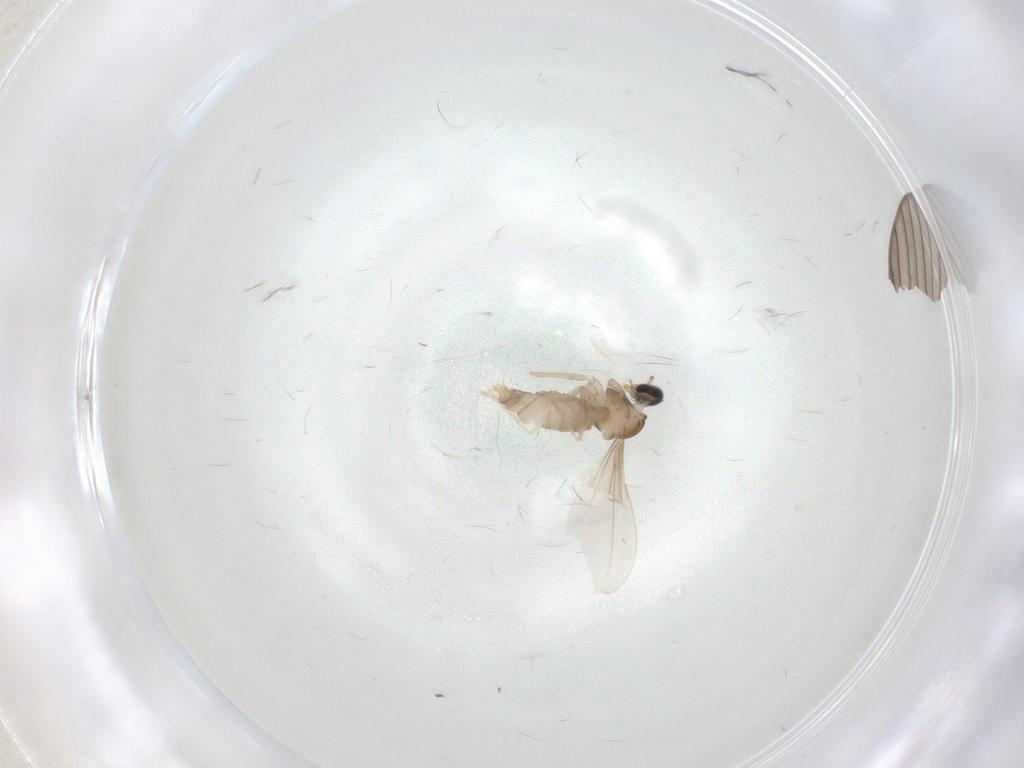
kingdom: Animalia
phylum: Arthropoda
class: Insecta
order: Diptera
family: Cecidomyiidae
